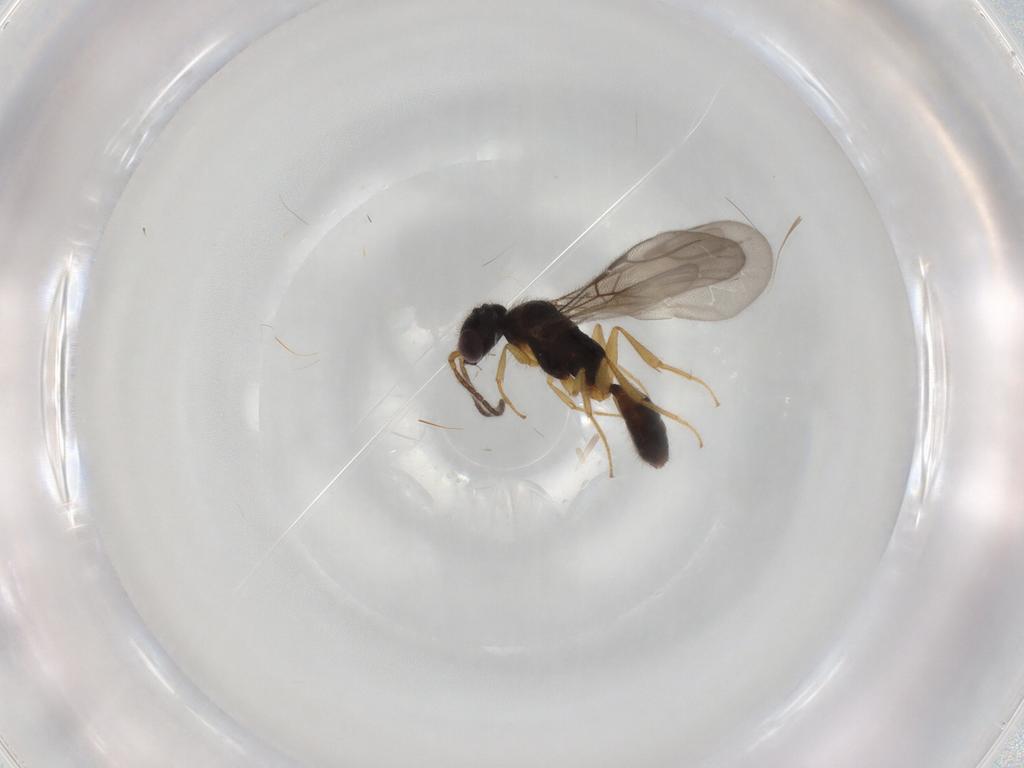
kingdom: Animalia
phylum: Arthropoda
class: Insecta
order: Hymenoptera
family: Bethylidae
